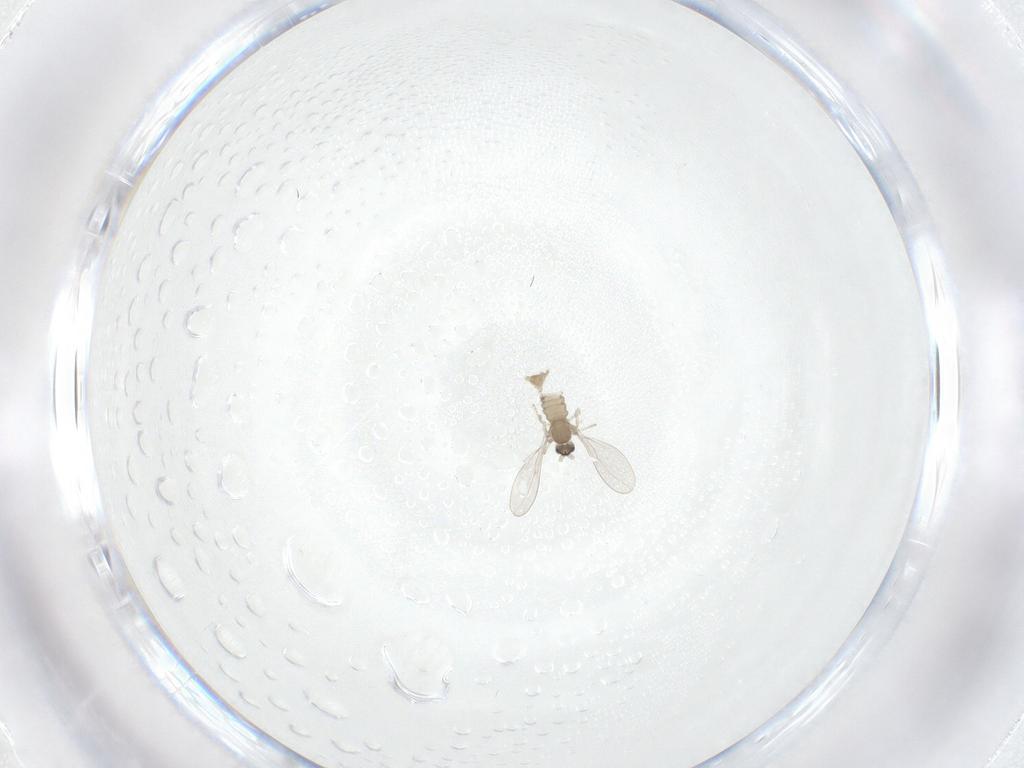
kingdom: Animalia
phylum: Arthropoda
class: Insecta
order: Diptera
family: Cecidomyiidae
